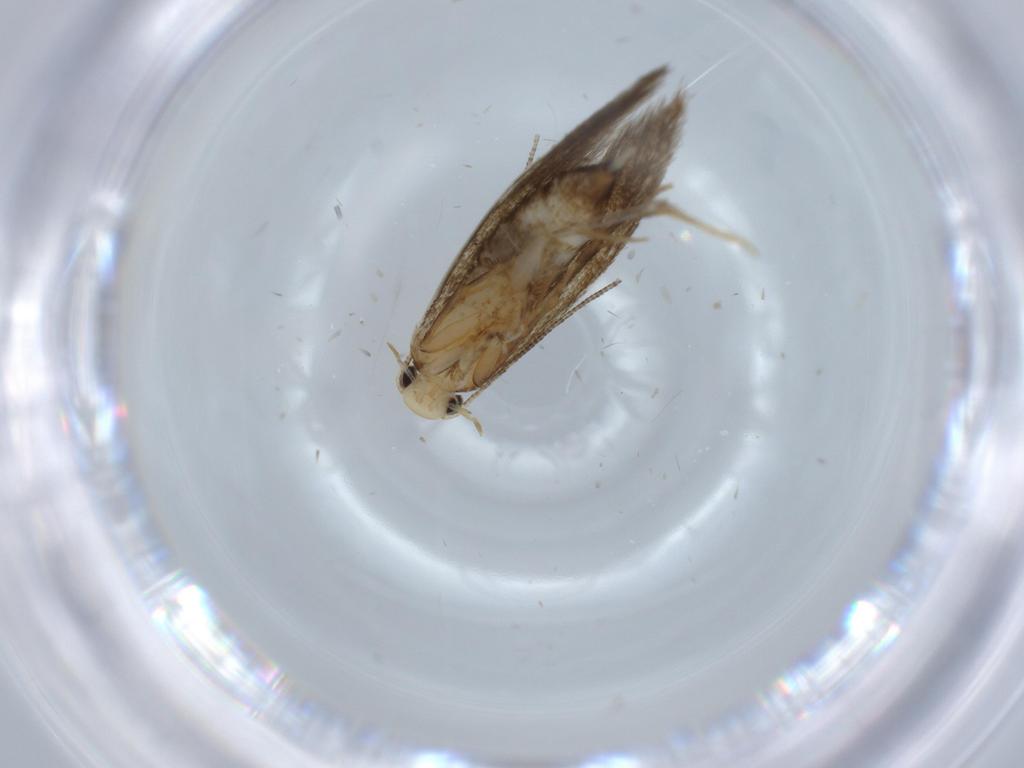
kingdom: Animalia
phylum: Arthropoda
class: Insecta
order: Lepidoptera
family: Tineidae
